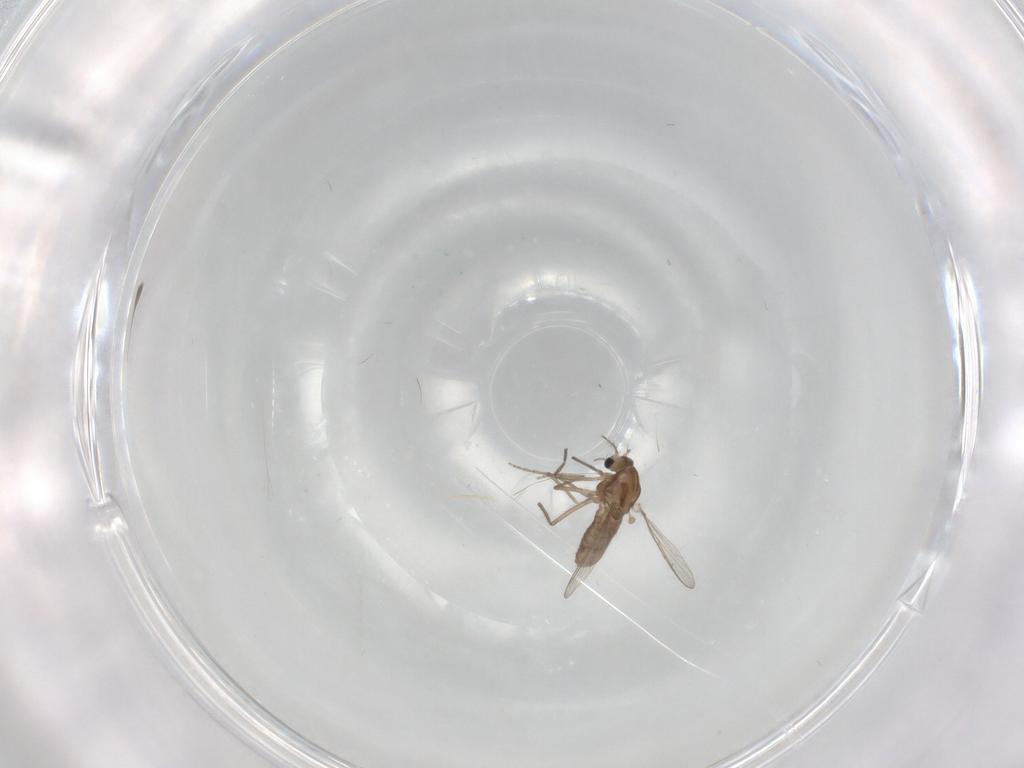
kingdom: Animalia
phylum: Arthropoda
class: Insecta
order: Diptera
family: Chironomidae
